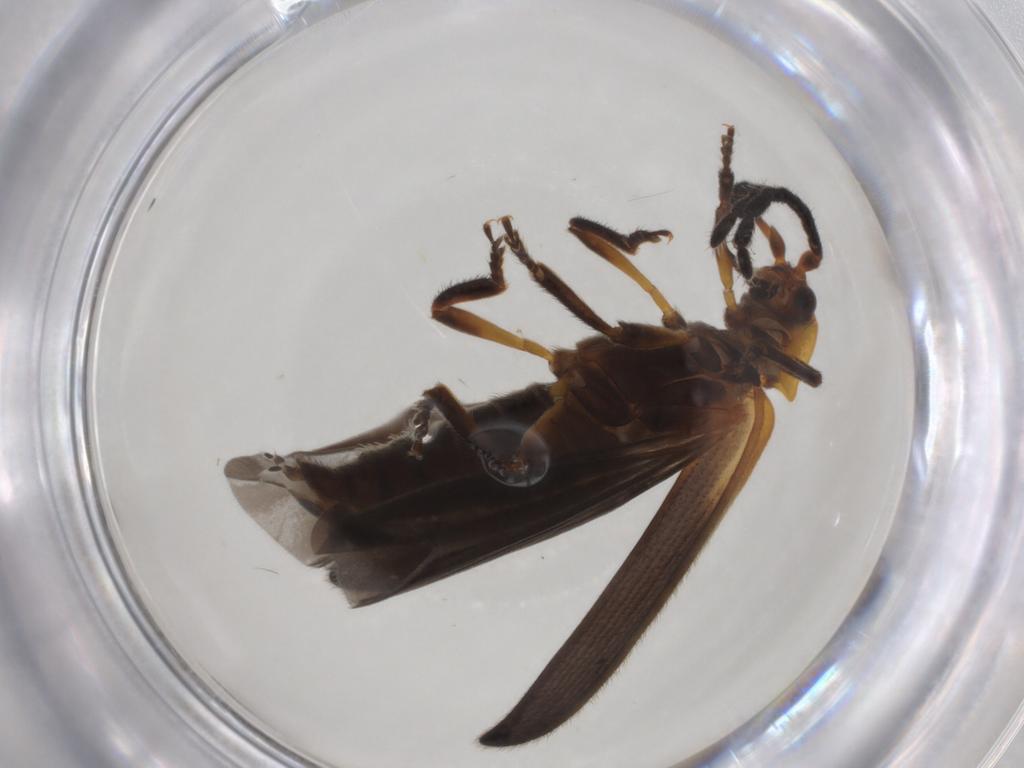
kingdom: Animalia
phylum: Arthropoda
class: Insecta
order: Coleoptera
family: Lycidae
